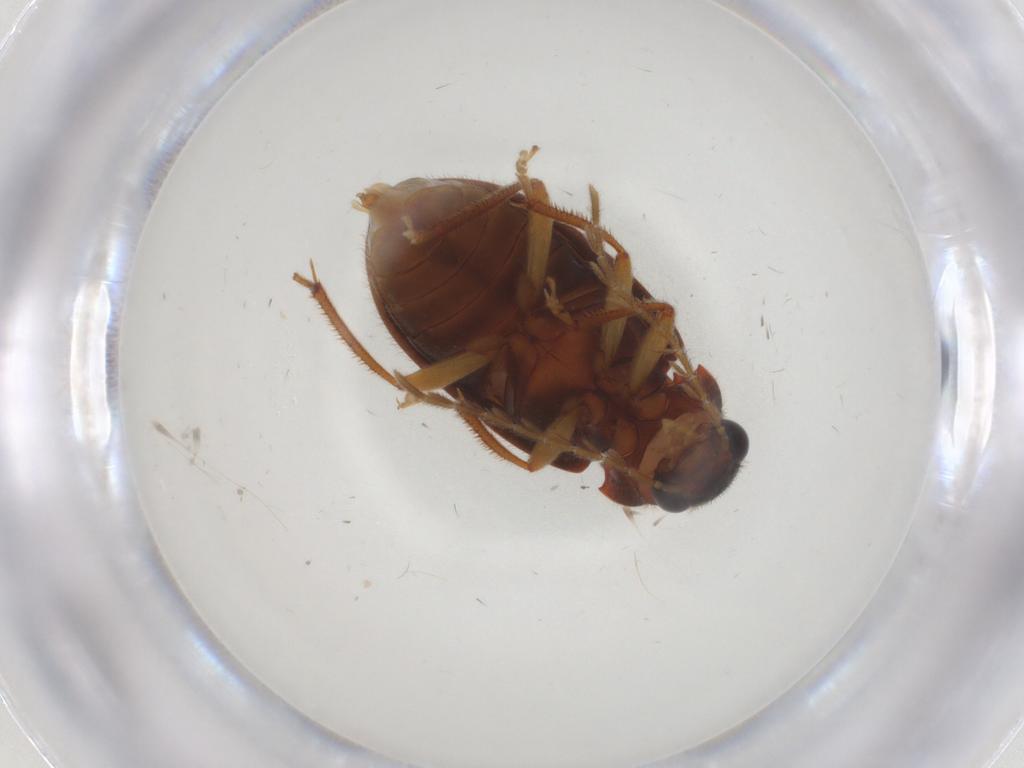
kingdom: Animalia
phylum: Arthropoda
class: Insecta
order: Coleoptera
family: Ptilodactylidae
